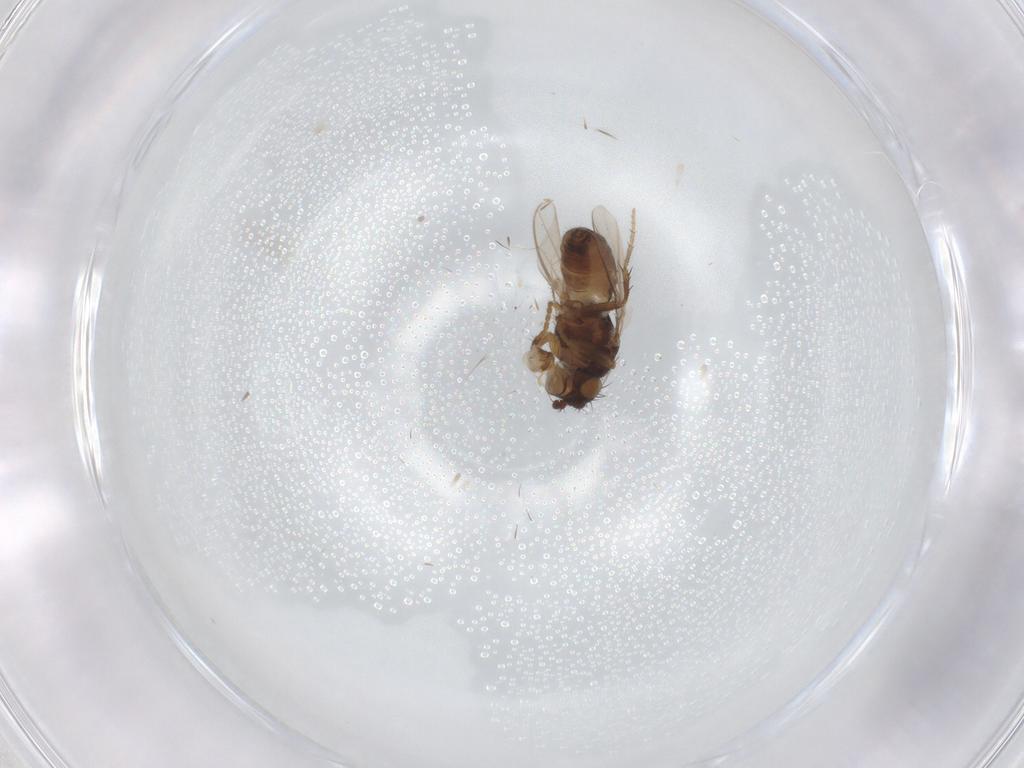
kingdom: Animalia
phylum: Arthropoda
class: Insecta
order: Diptera
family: Sphaeroceridae
